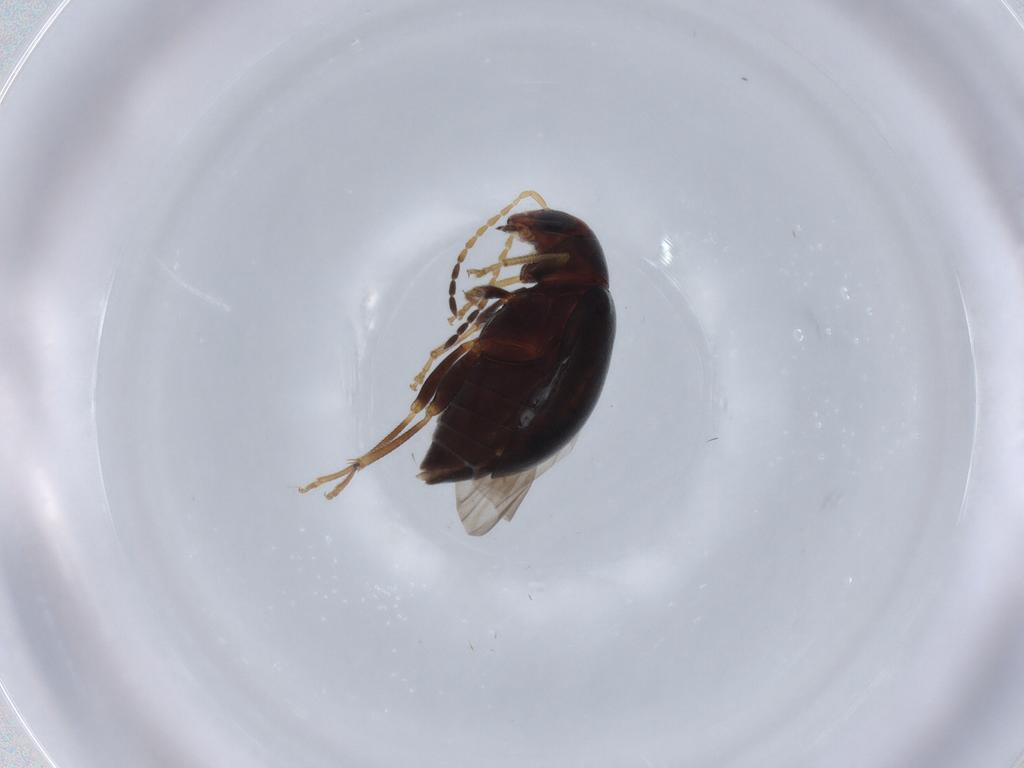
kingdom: Animalia
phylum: Arthropoda
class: Insecta
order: Coleoptera
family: Chrysomelidae
